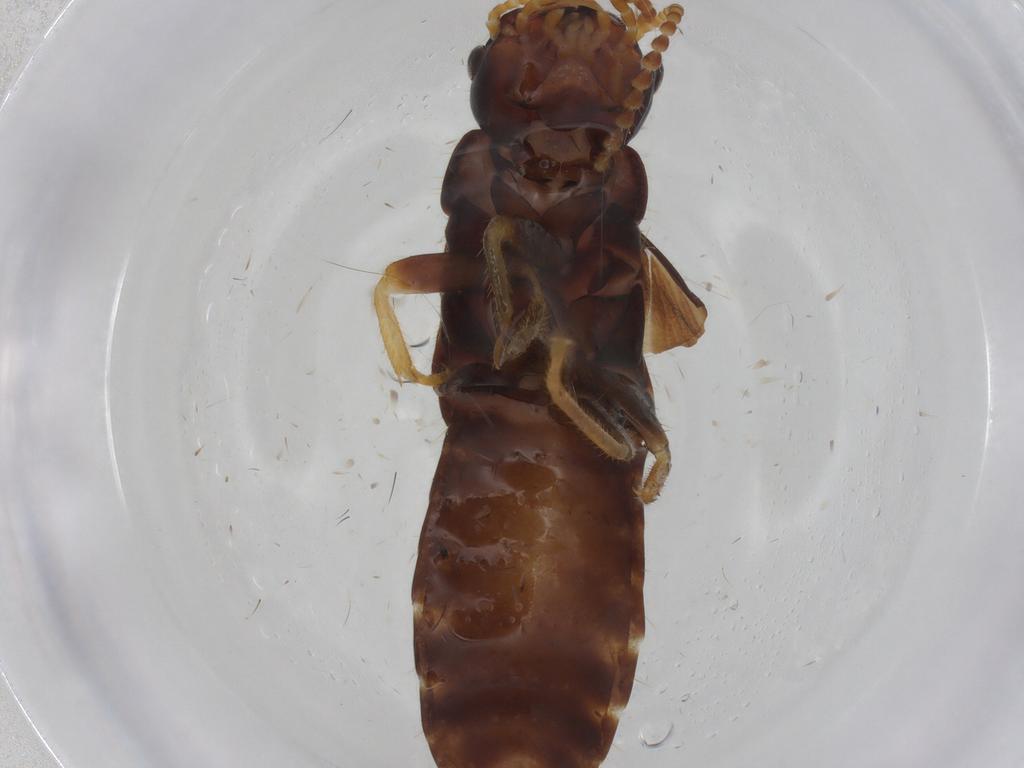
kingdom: Animalia
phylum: Arthropoda
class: Insecta
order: Blattodea
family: Kalotermitidae
